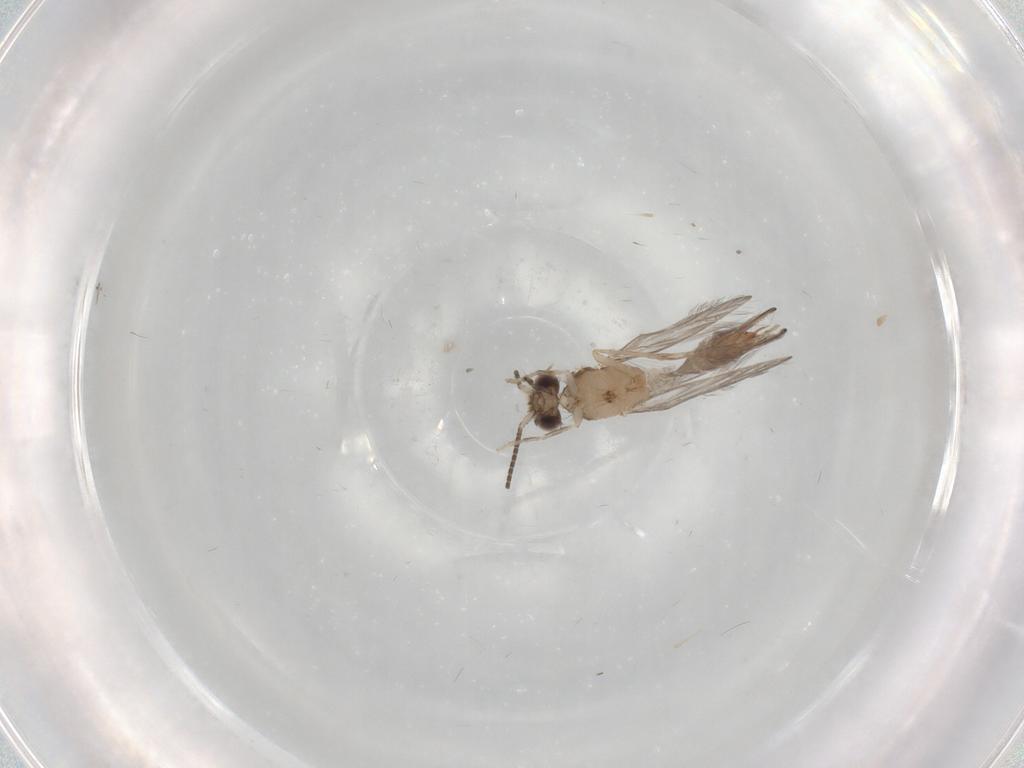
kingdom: Animalia
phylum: Arthropoda
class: Insecta
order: Trichoptera
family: Hydroptilidae
